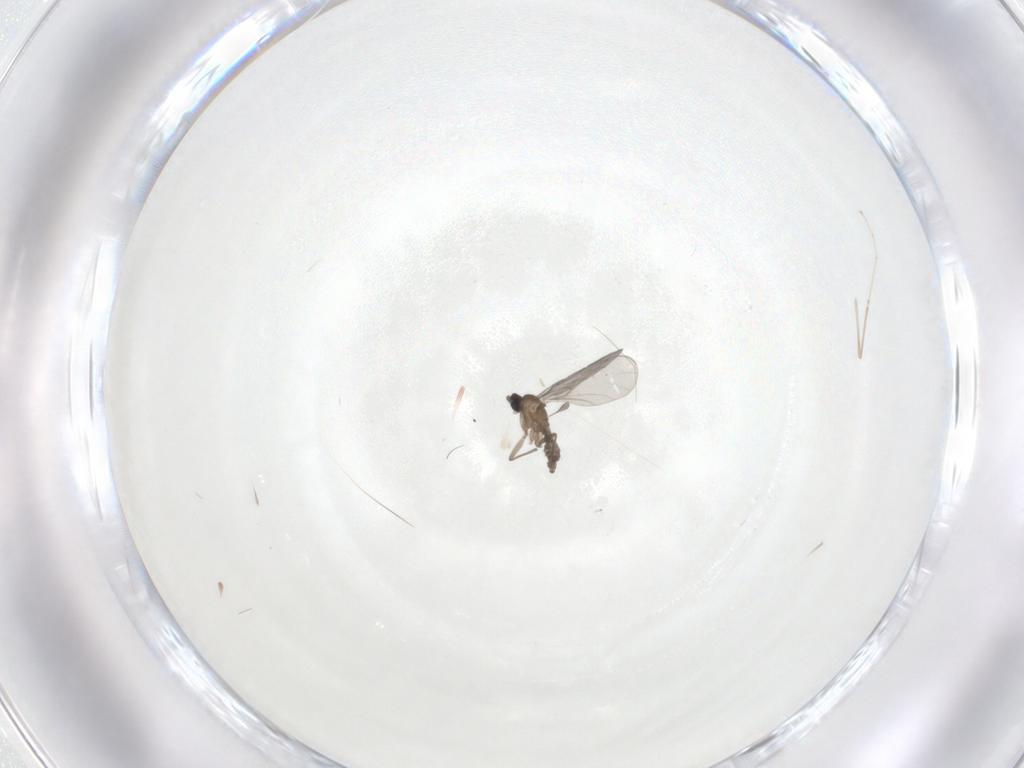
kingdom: Animalia
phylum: Arthropoda
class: Insecta
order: Diptera
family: Cecidomyiidae
